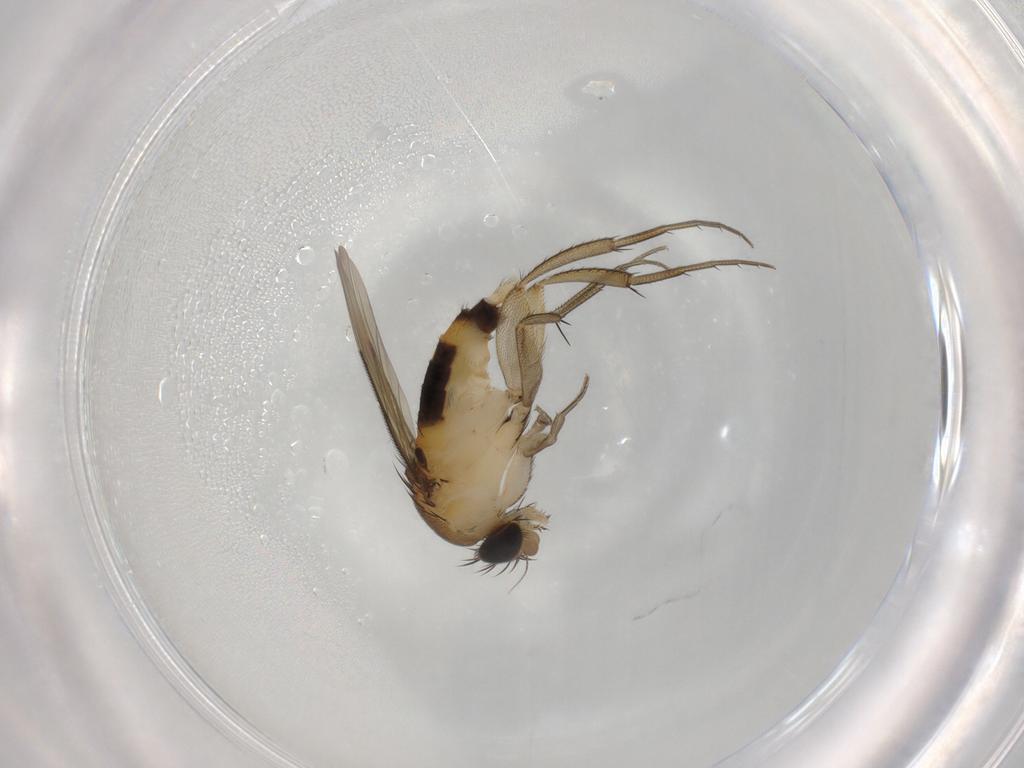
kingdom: Animalia
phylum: Arthropoda
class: Insecta
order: Diptera
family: Phoridae
